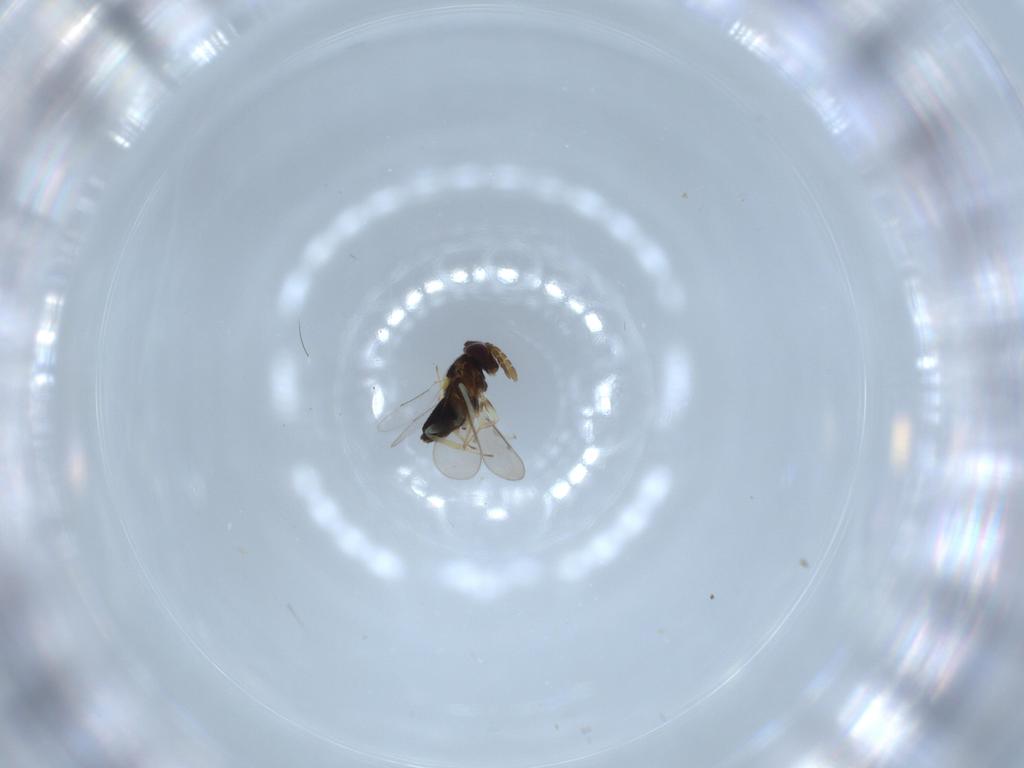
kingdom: Animalia
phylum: Arthropoda
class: Insecta
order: Hymenoptera
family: Aphelinidae
